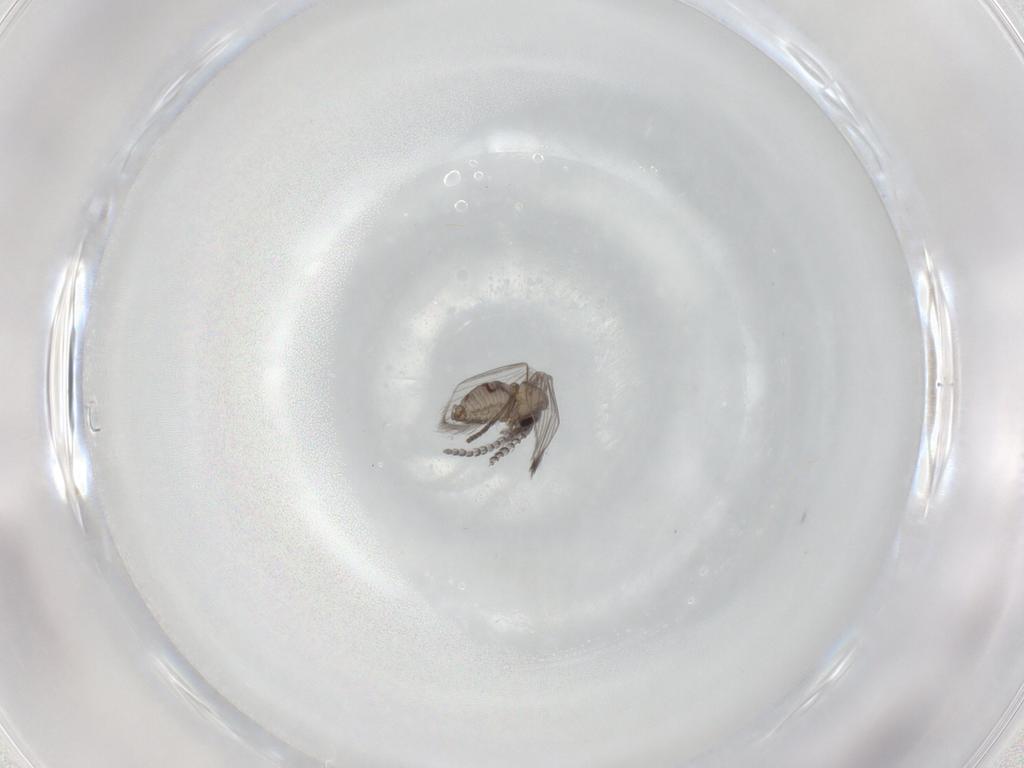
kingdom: Animalia
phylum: Arthropoda
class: Insecta
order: Diptera
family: Psychodidae
